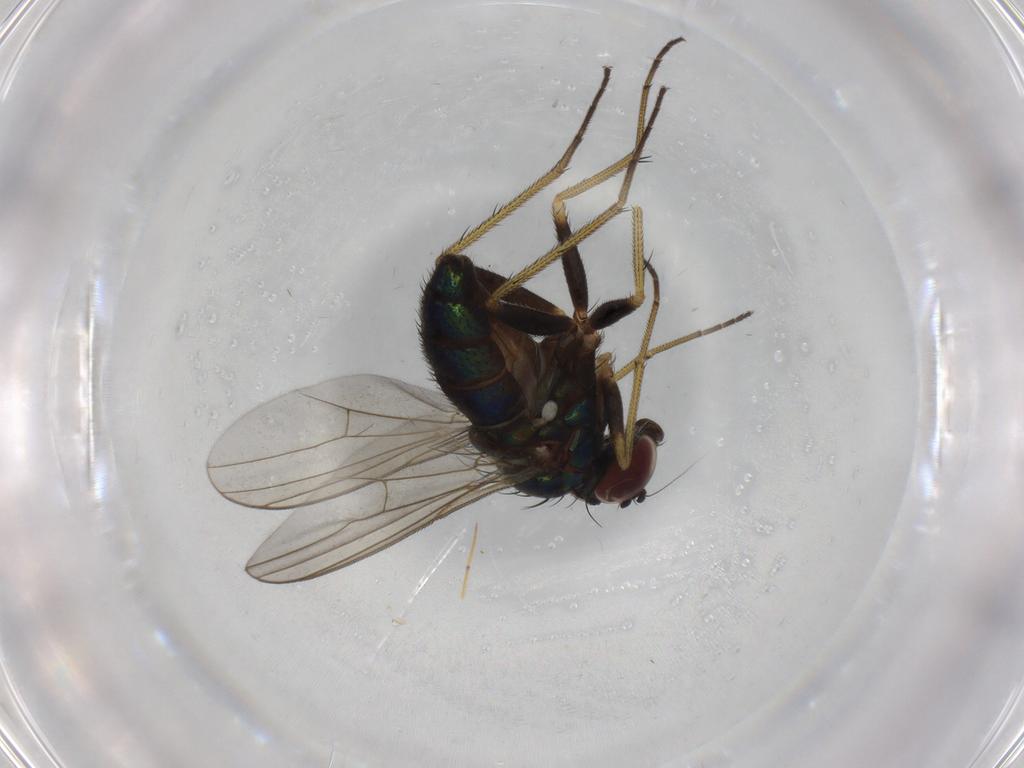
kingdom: Animalia
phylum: Arthropoda
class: Insecta
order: Diptera
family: Dolichopodidae
